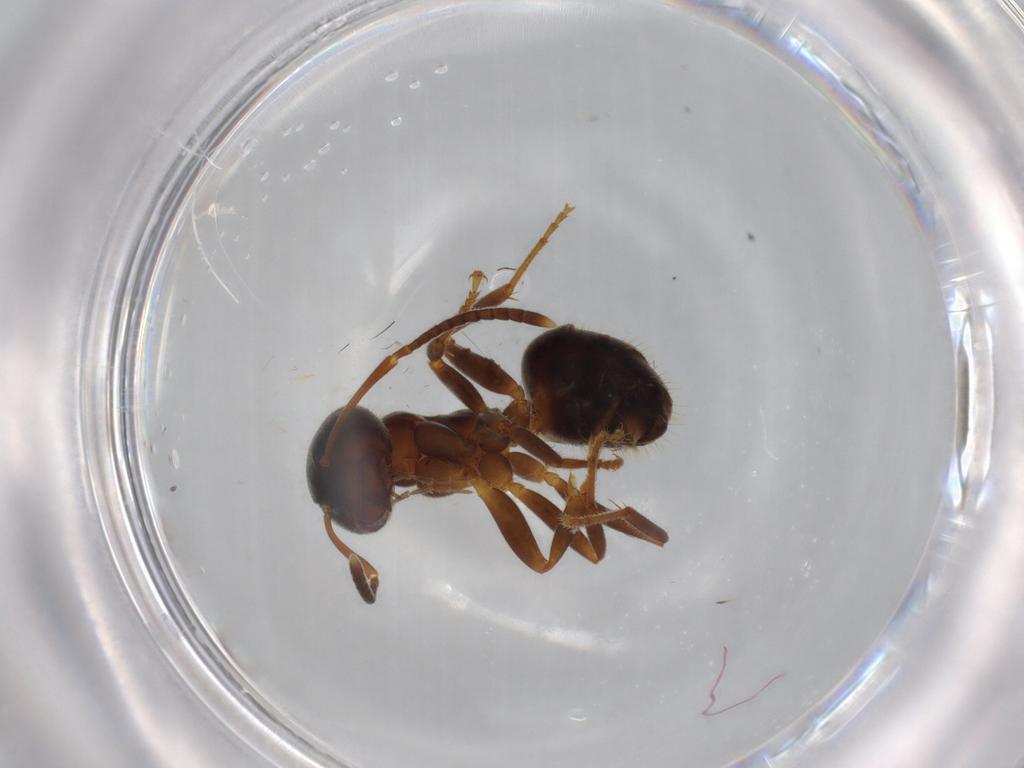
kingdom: Animalia
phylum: Arthropoda
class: Insecta
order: Hymenoptera
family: Formicidae
